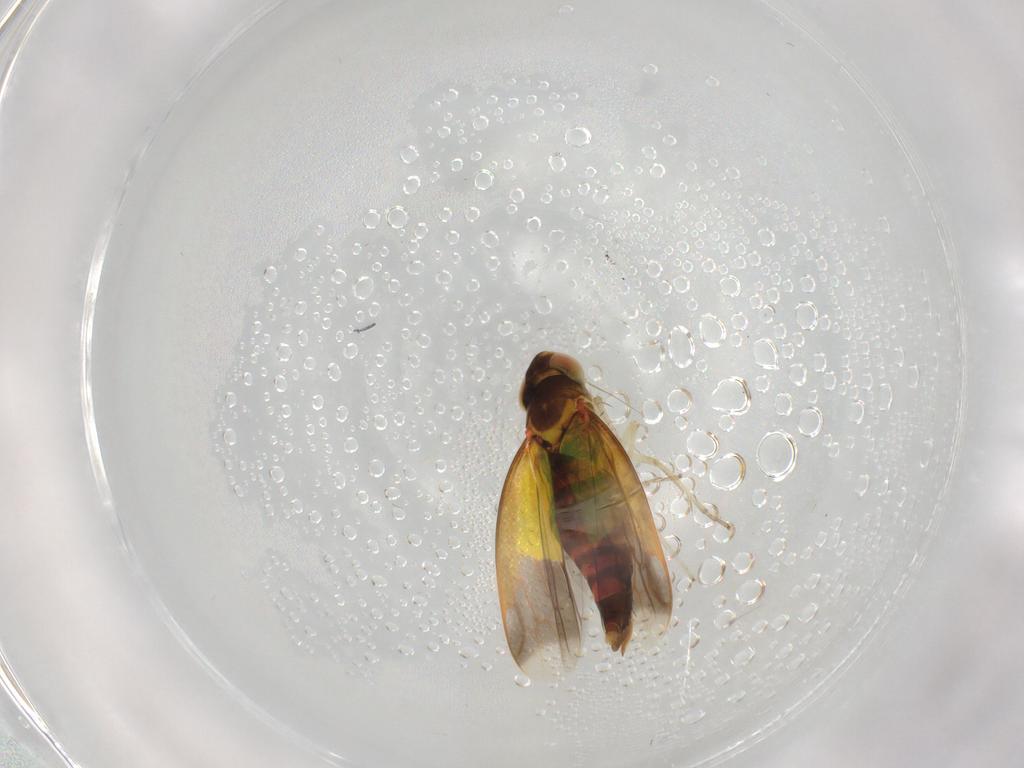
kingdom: Animalia
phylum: Arthropoda
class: Insecta
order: Hemiptera
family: Cicadellidae
